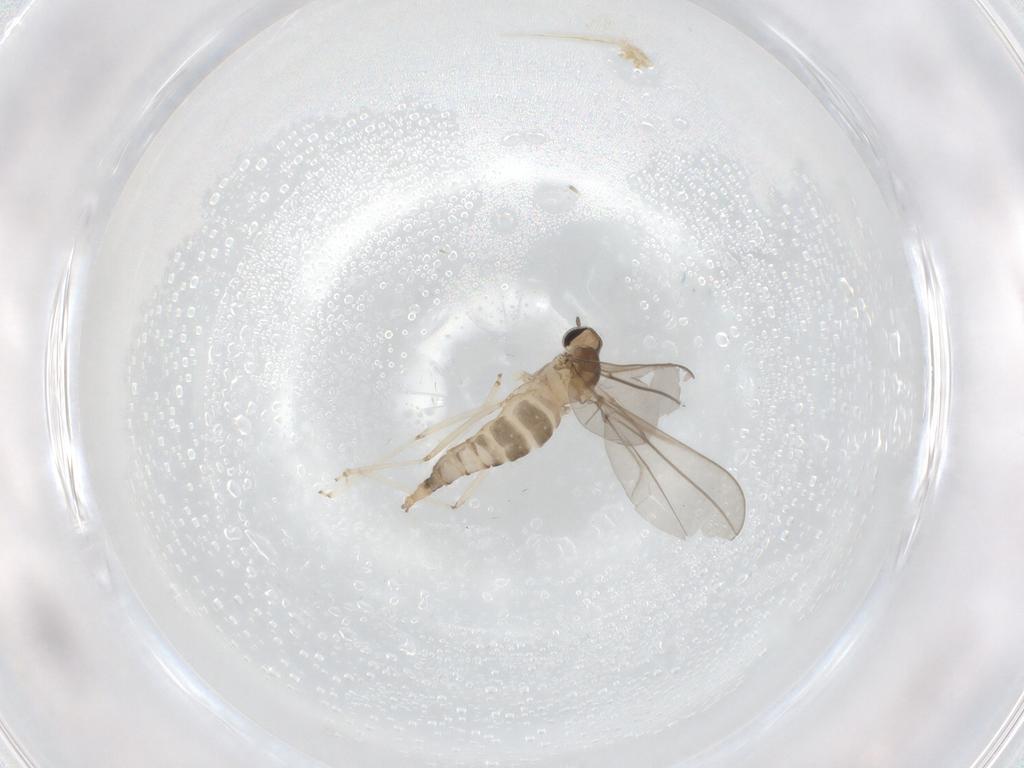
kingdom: Animalia
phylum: Arthropoda
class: Insecta
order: Diptera
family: Cecidomyiidae
